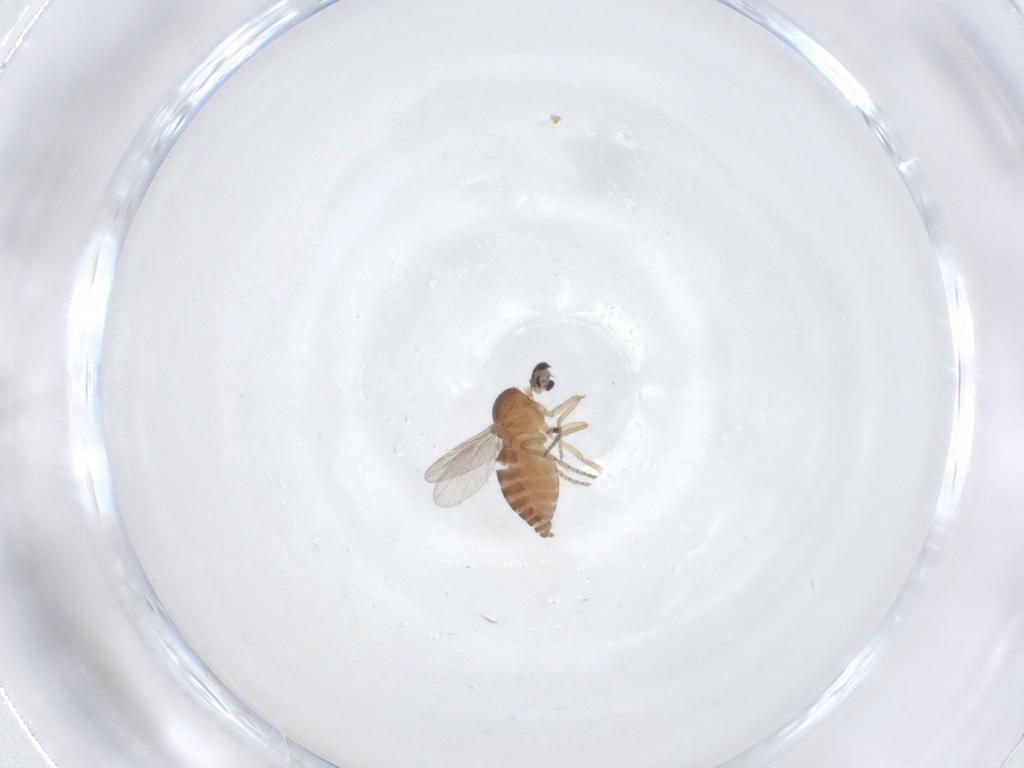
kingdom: Animalia
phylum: Arthropoda
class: Insecta
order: Diptera
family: Ceratopogonidae
